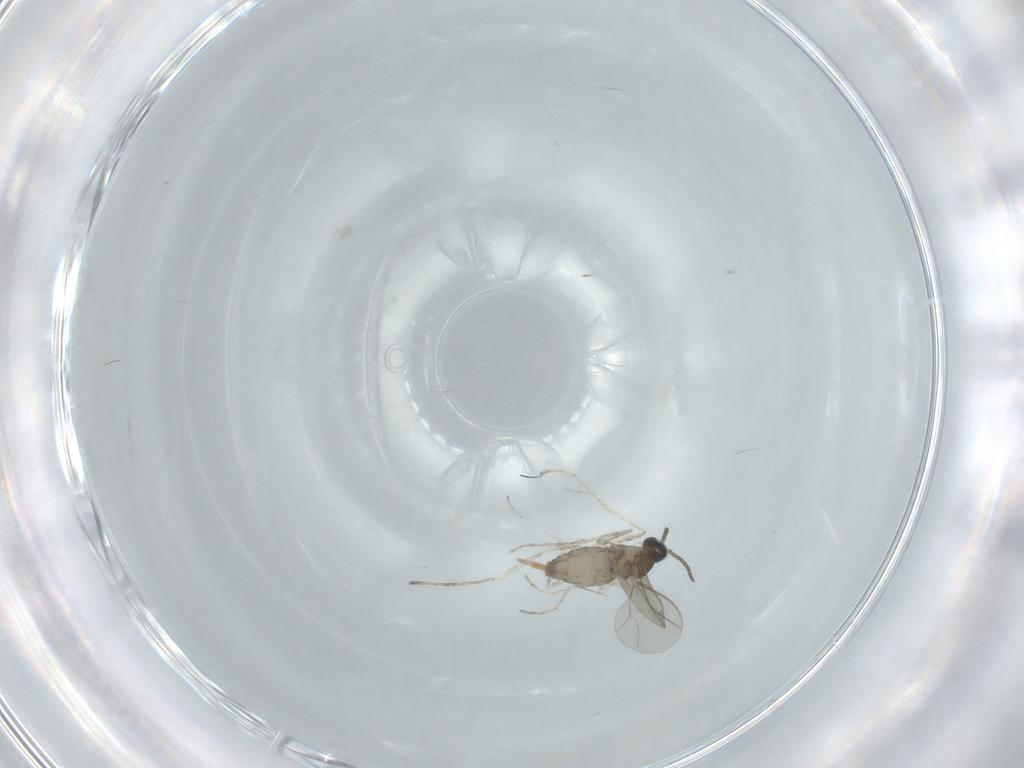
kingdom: Animalia
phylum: Arthropoda
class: Insecta
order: Diptera
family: Cecidomyiidae
